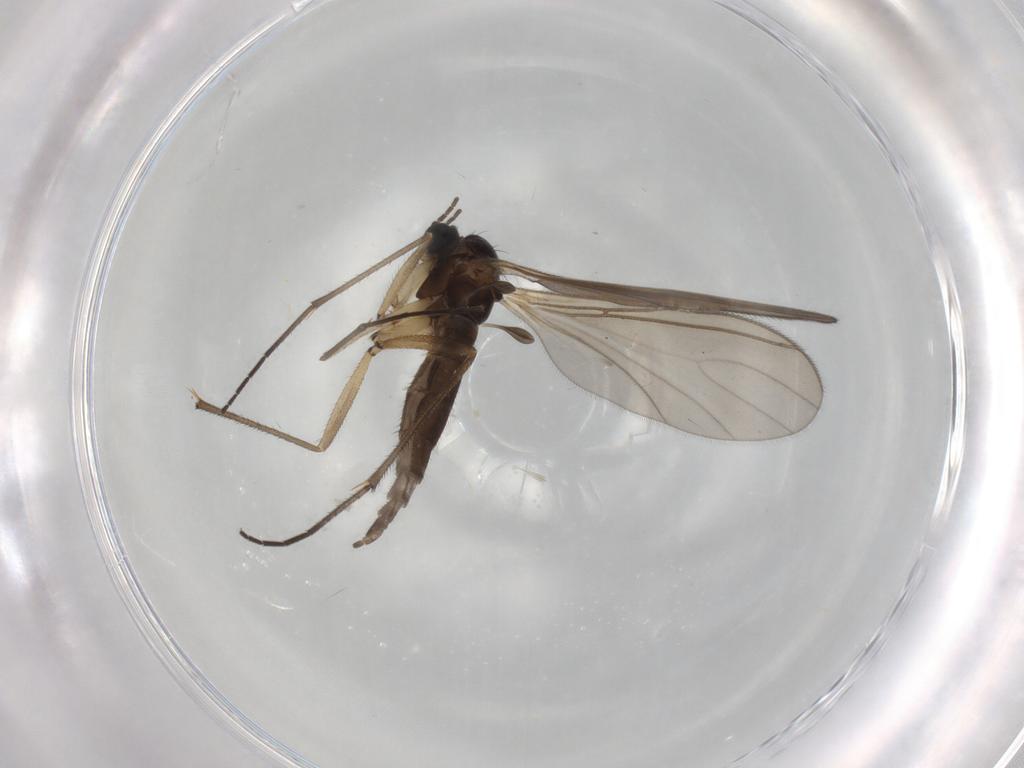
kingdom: Animalia
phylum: Arthropoda
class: Insecta
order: Diptera
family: Sciaridae
